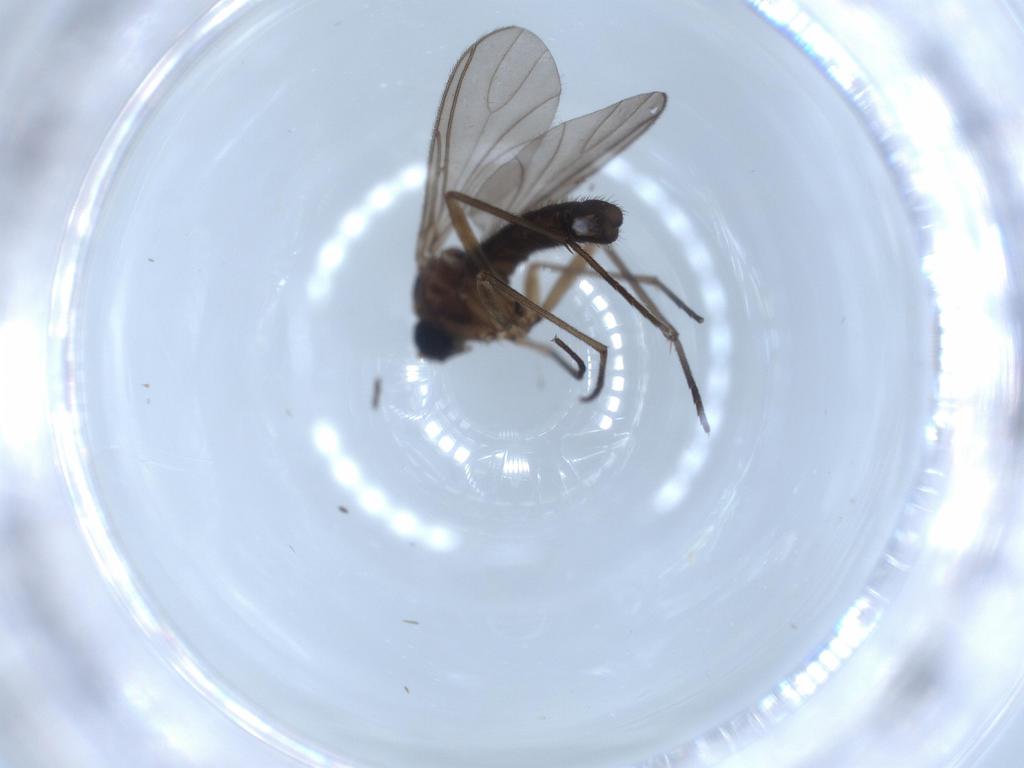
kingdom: Animalia
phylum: Arthropoda
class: Insecta
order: Diptera
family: Sciaridae
